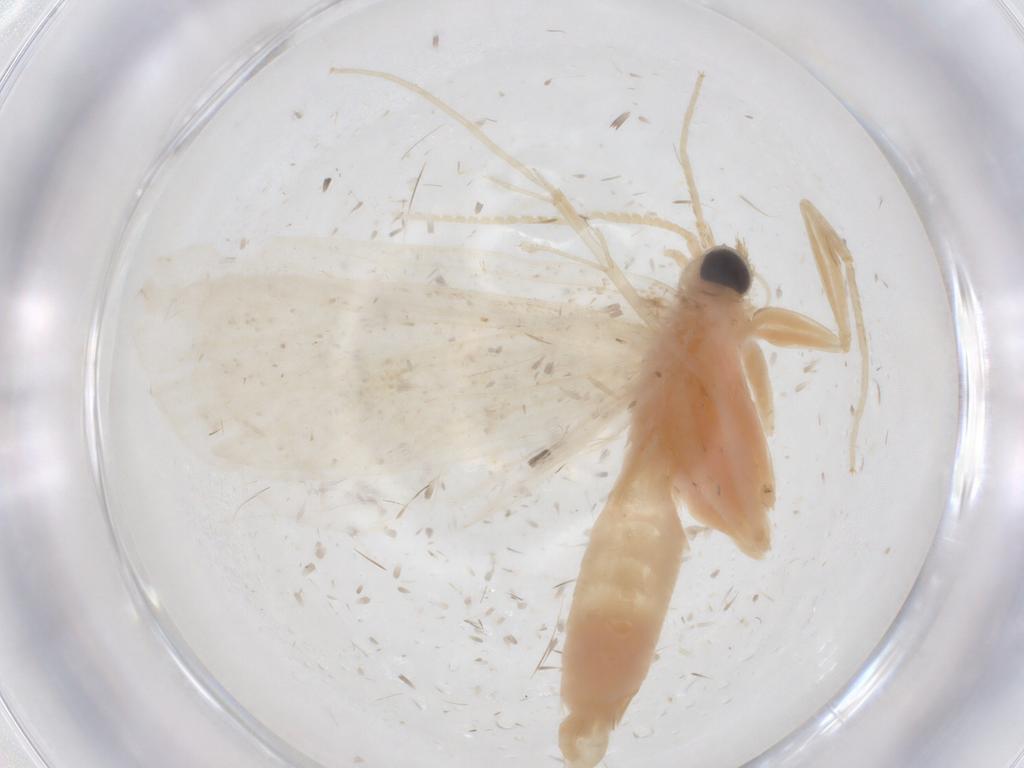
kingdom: Animalia
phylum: Arthropoda
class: Insecta
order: Lepidoptera
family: Crambidae
